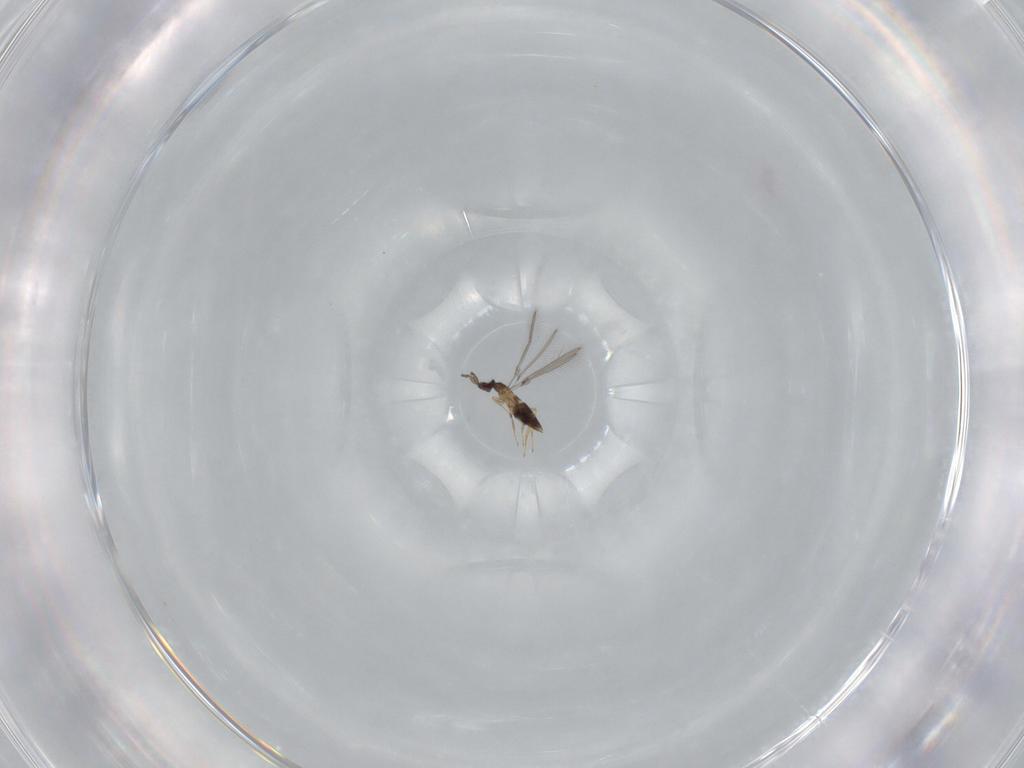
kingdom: Animalia
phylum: Arthropoda
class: Insecta
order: Hymenoptera
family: Mymaridae
